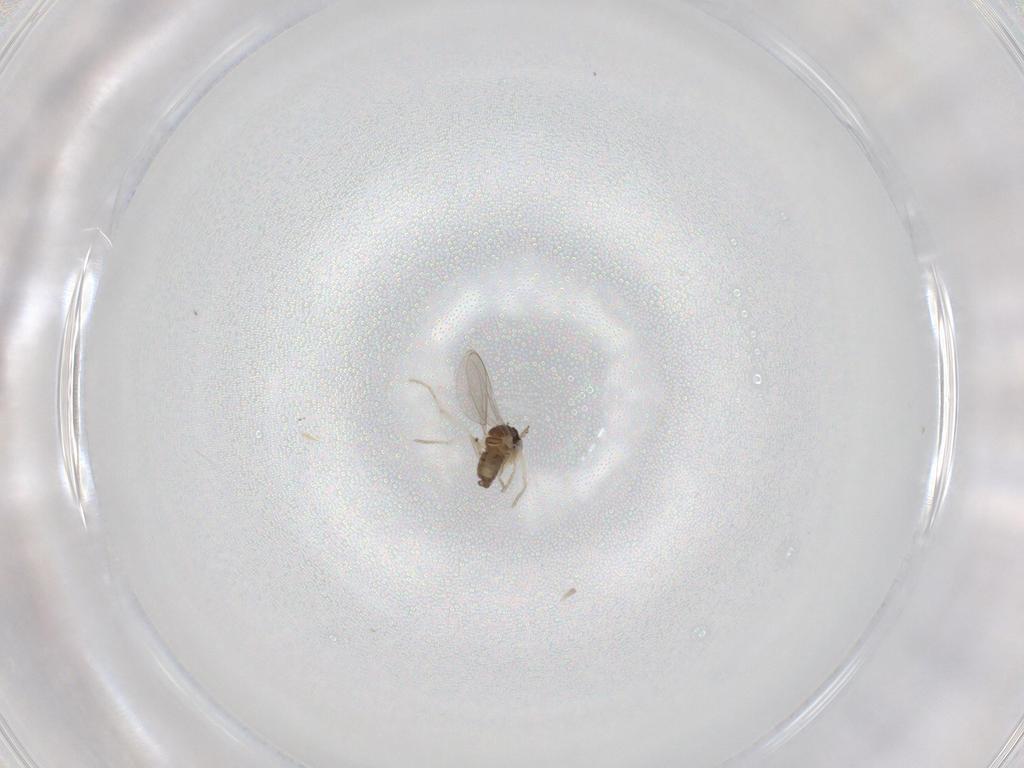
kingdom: Animalia
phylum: Arthropoda
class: Insecta
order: Diptera
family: Cecidomyiidae
